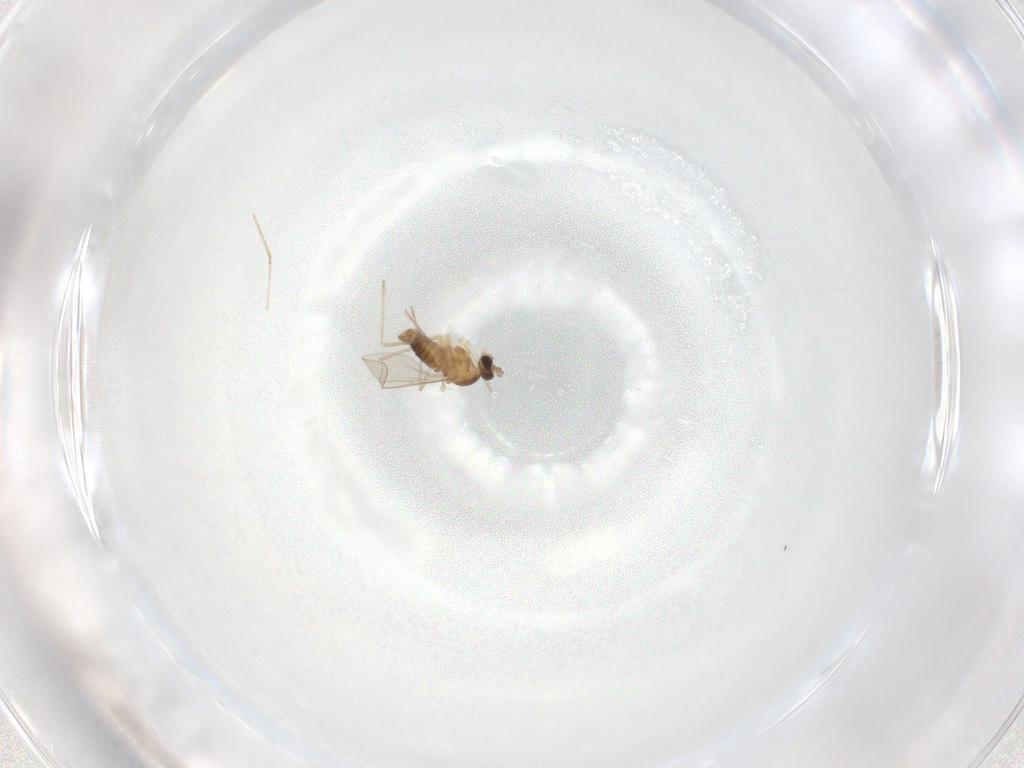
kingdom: Animalia
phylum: Arthropoda
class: Insecta
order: Diptera
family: Cecidomyiidae
